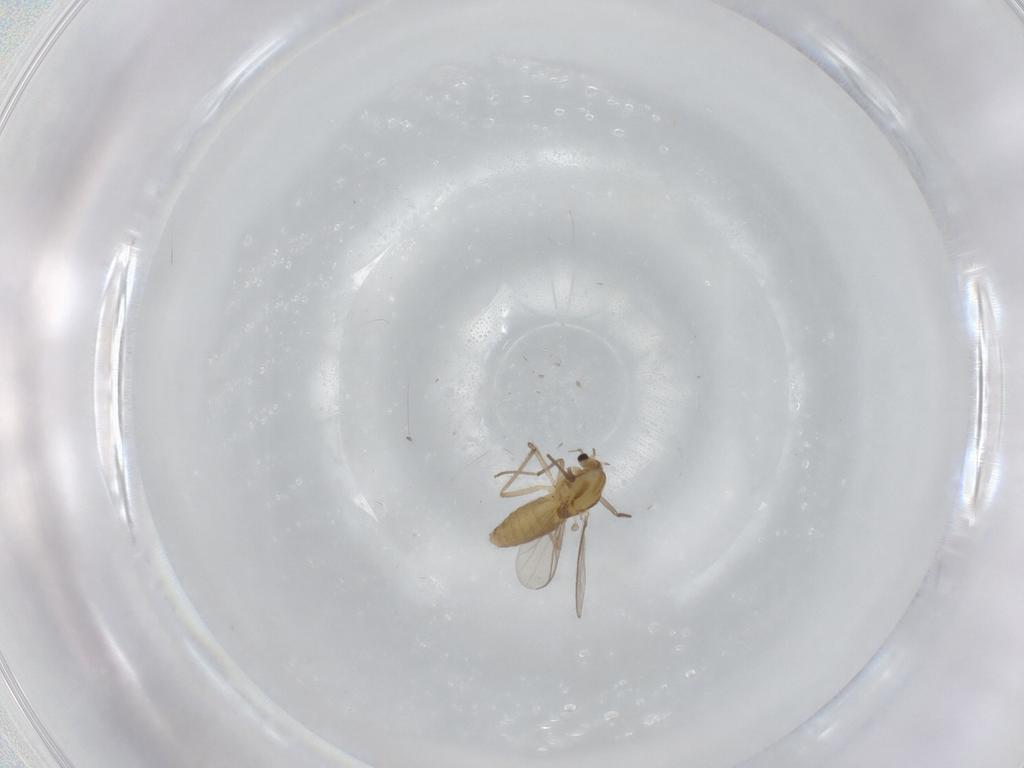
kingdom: Animalia
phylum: Arthropoda
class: Insecta
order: Diptera
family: Chironomidae
